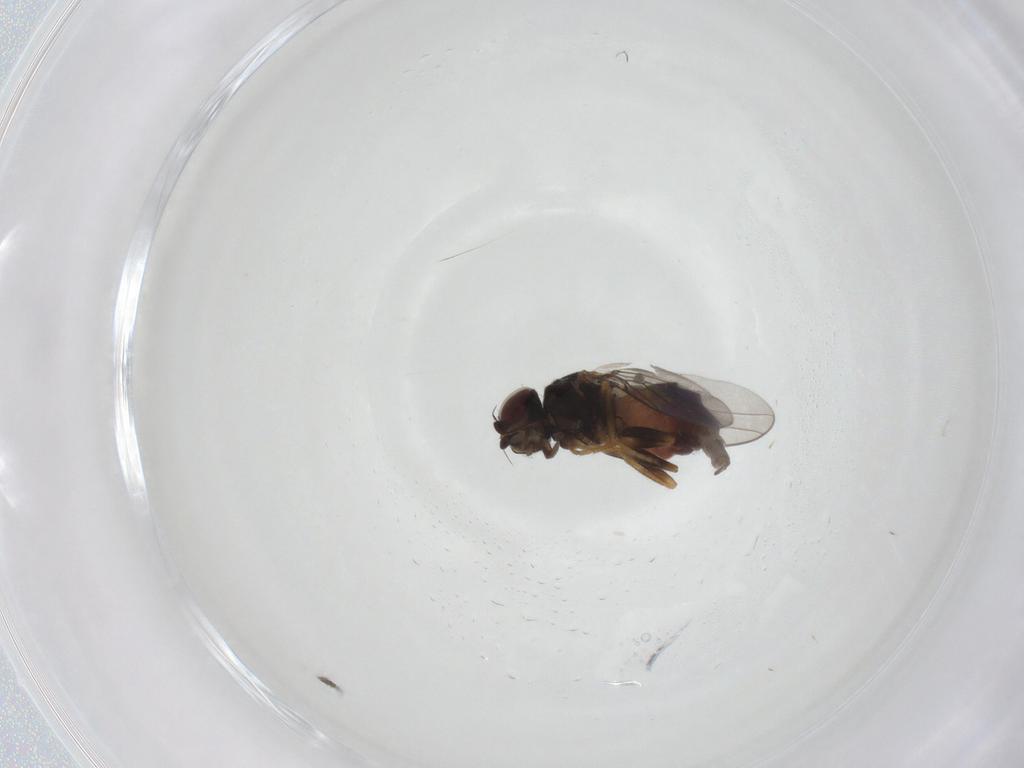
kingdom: Animalia
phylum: Arthropoda
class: Insecta
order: Diptera
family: Chloropidae
